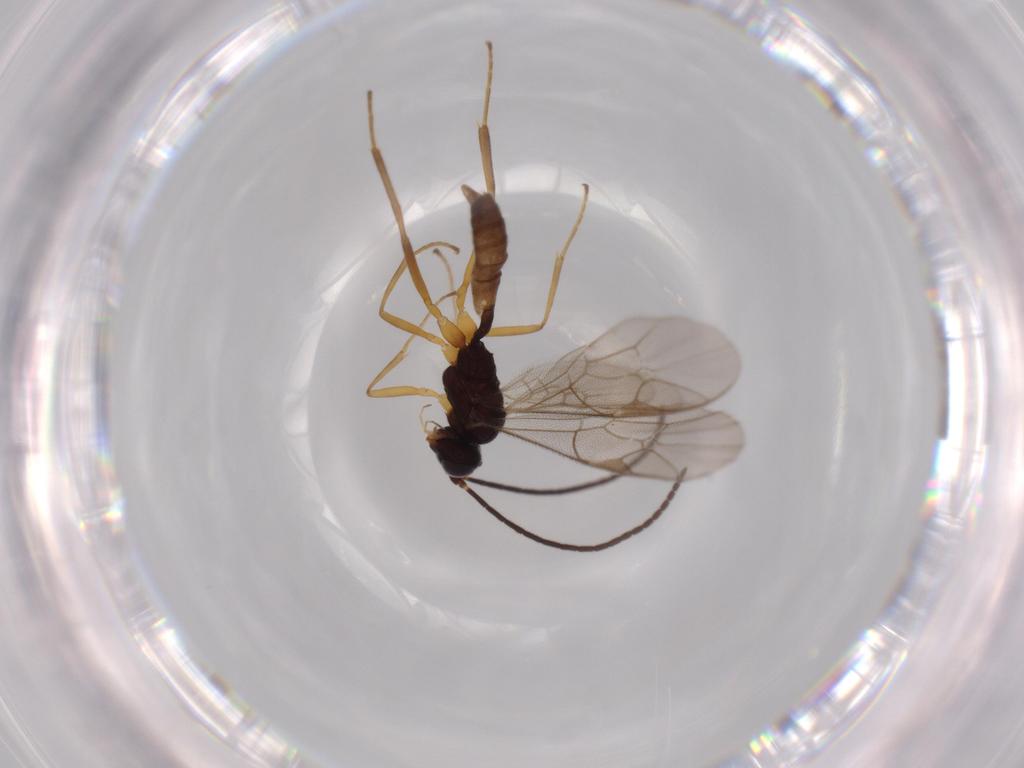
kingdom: Animalia
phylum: Arthropoda
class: Insecta
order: Hymenoptera
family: Ichneumonidae
